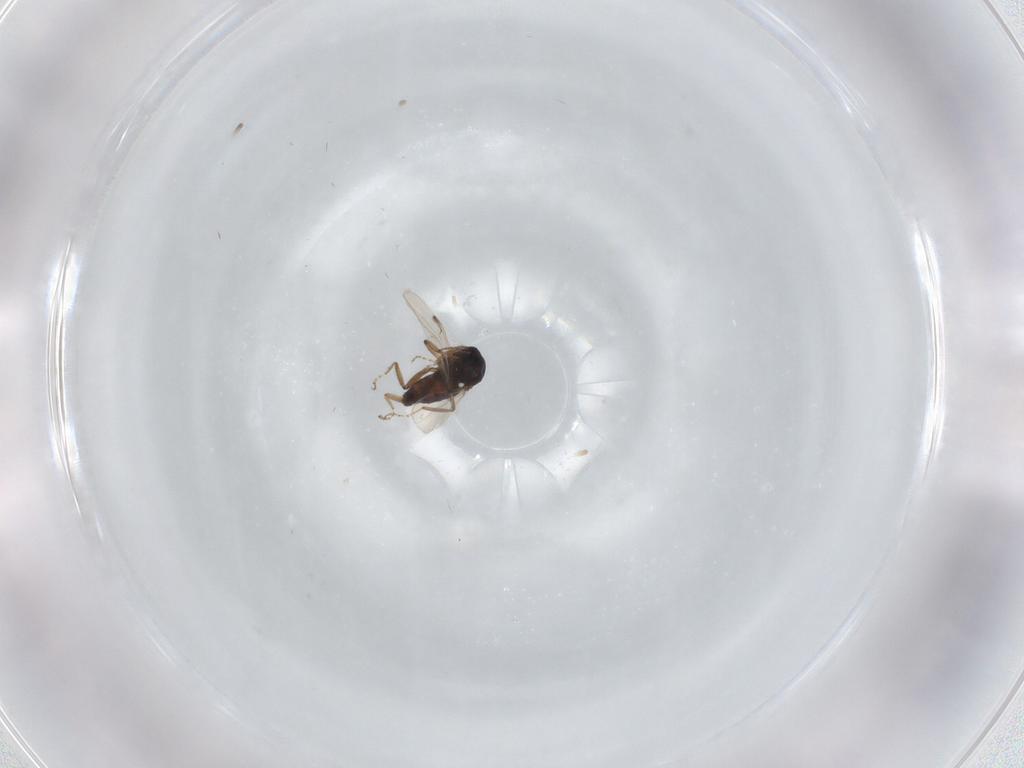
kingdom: Animalia
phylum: Arthropoda
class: Insecta
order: Diptera
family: Ceratopogonidae
